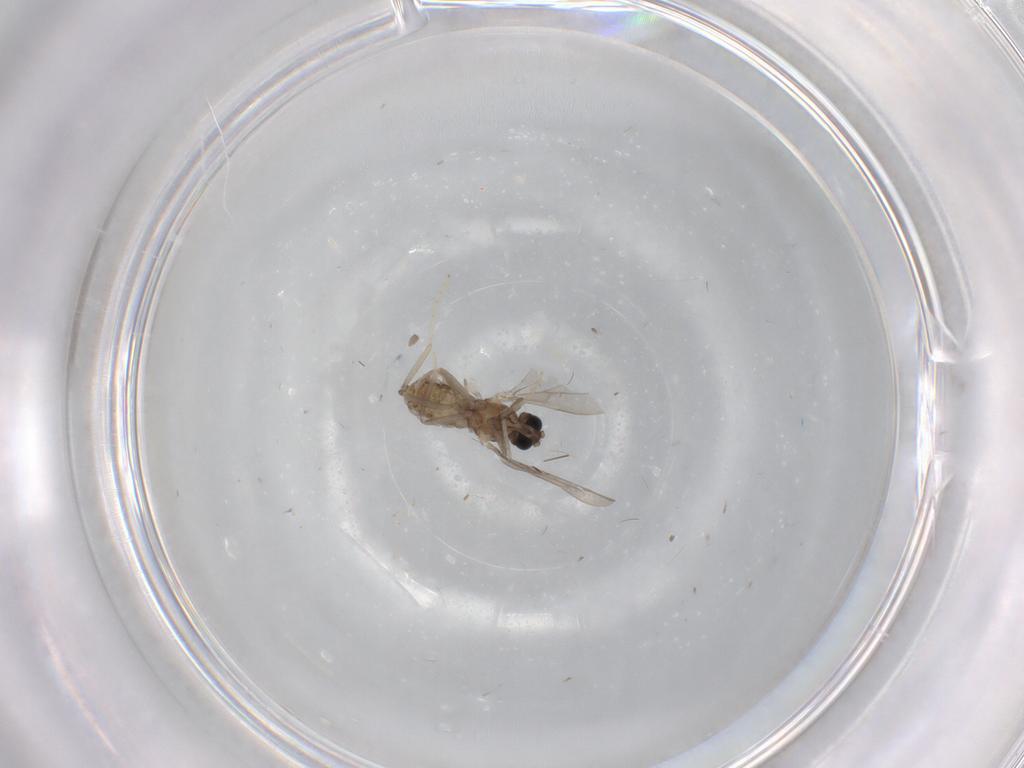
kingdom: Animalia
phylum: Arthropoda
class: Insecta
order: Diptera
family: Cecidomyiidae
